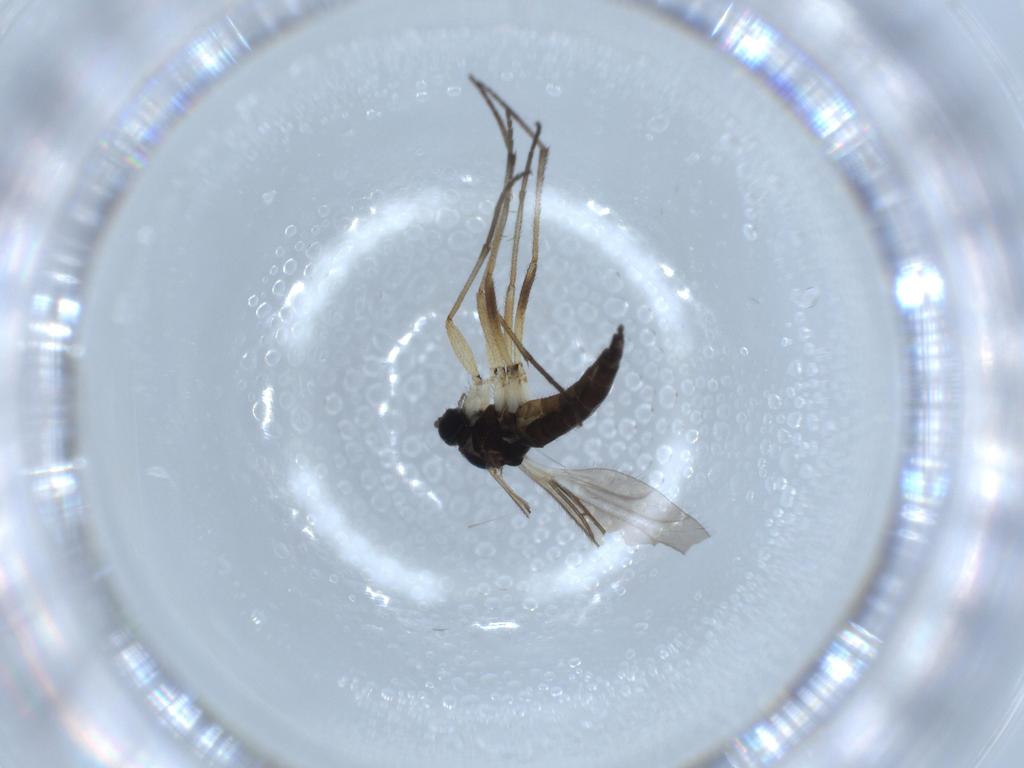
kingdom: Animalia
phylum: Arthropoda
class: Insecta
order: Diptera
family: Sciaridae
